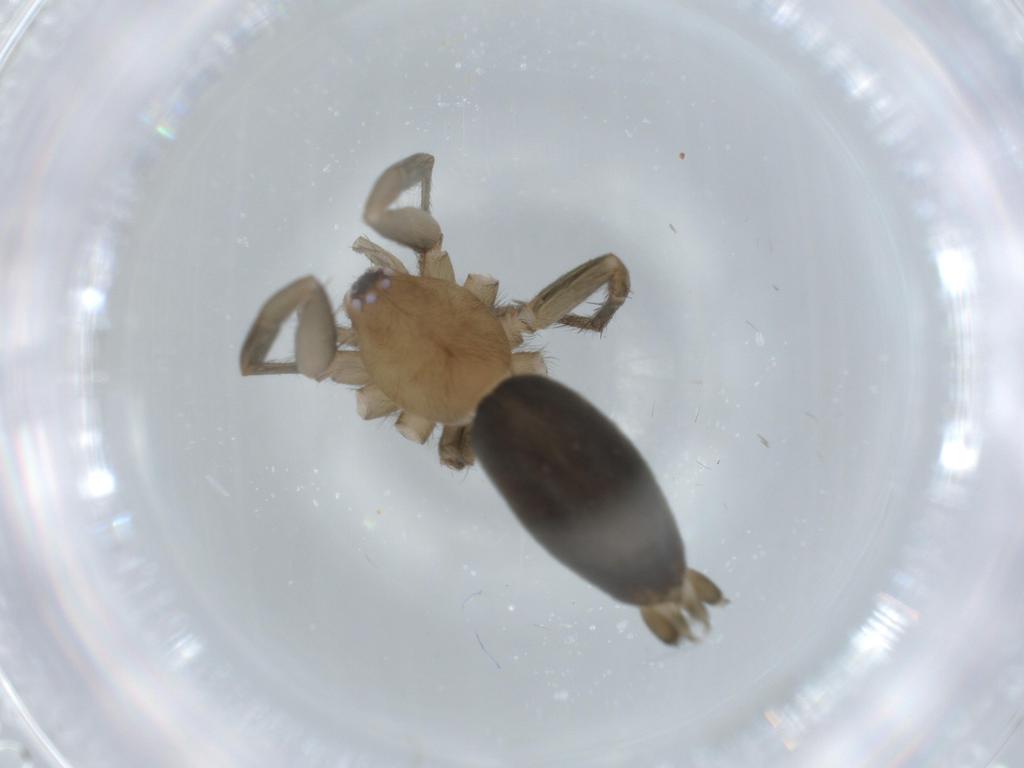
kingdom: Animalia
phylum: Arthropoda
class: Arachnida
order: Araneae
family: Gnaphosidae
